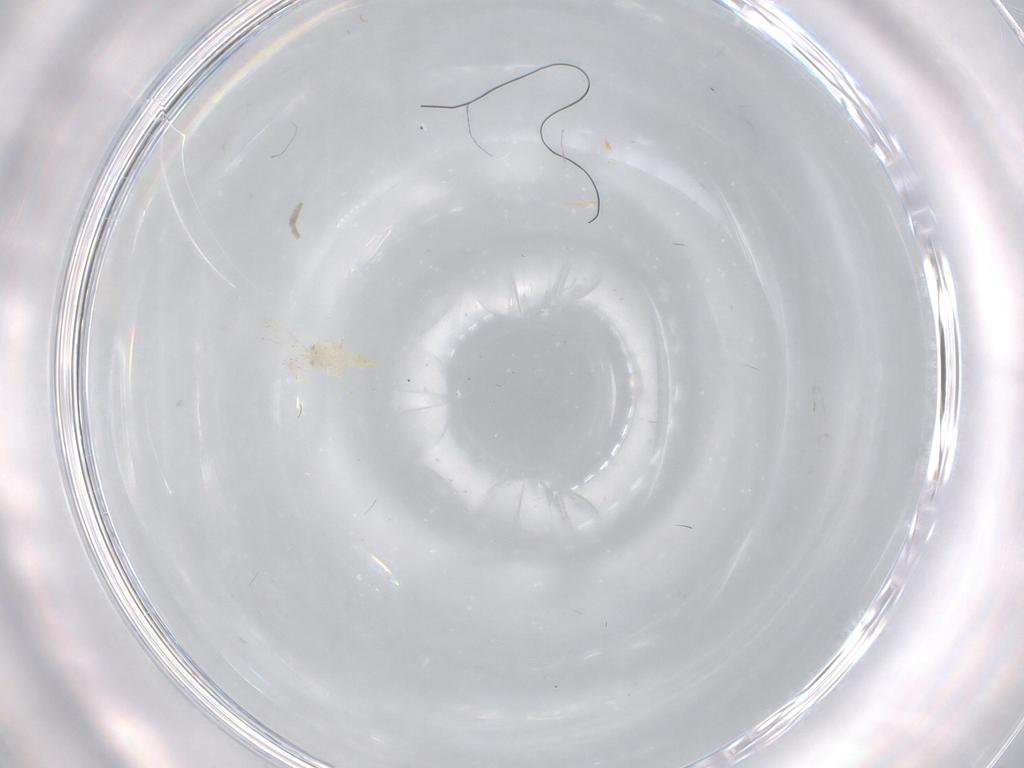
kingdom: Animalia
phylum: Arthropoda
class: Insecta
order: Hemiptera
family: Aleyrodidae
